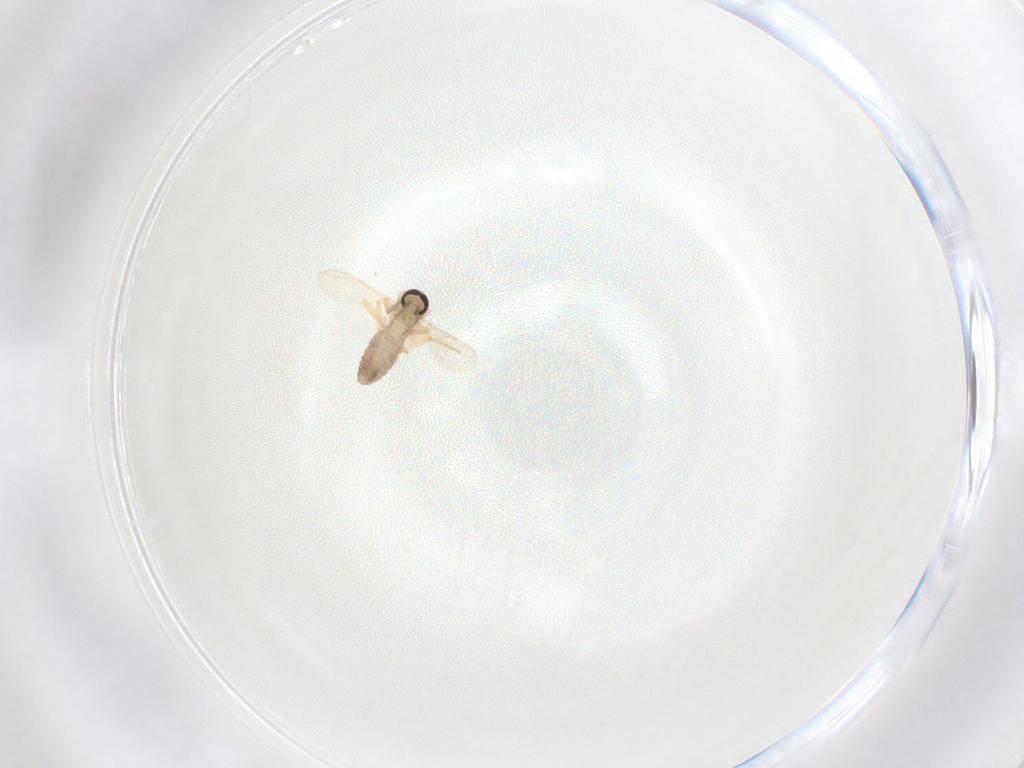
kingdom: Animalia
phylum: Arthropoda
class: Insecta
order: Diptera
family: Ceratopogonidae
